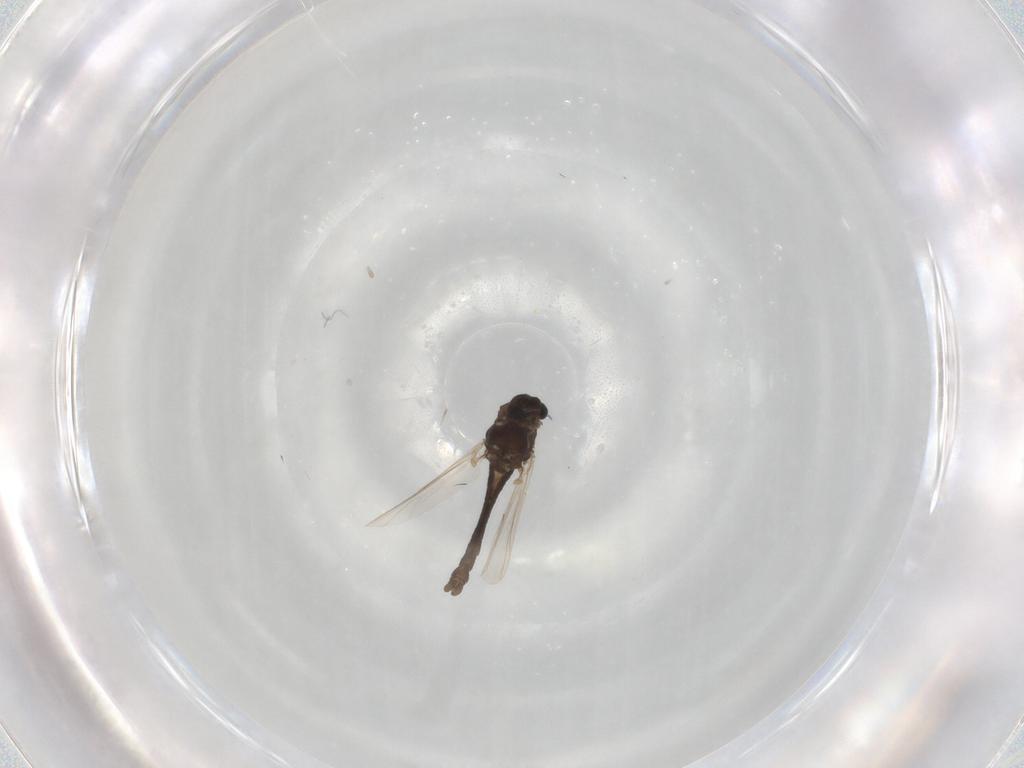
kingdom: Animalia
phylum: Arthropoda
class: Insecta
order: Diptera
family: Chironomidae
